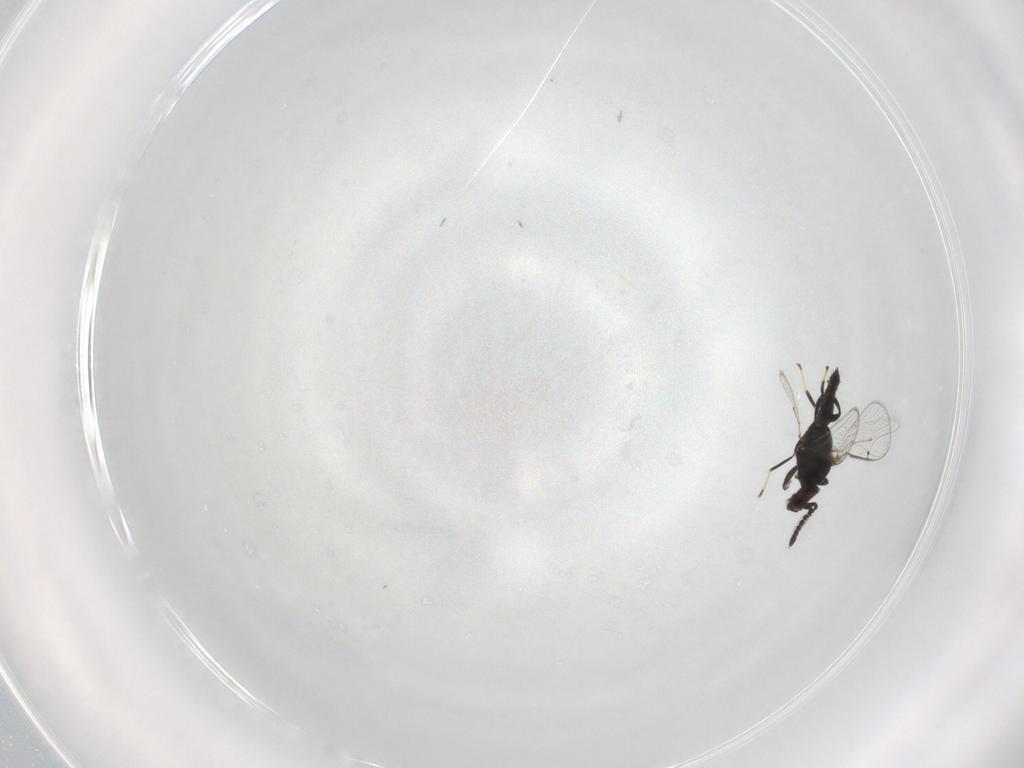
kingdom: Animalia
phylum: Arthropoda
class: Insecta
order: Hymenoptera
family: Eulophidae
